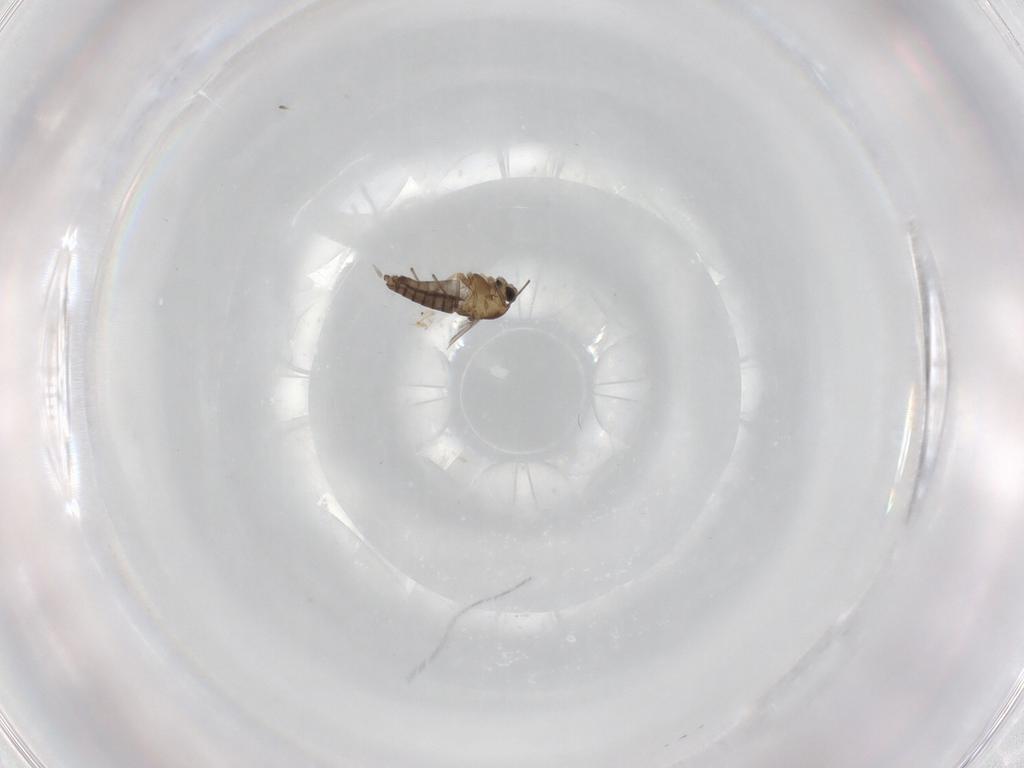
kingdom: Animalia
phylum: Arthropoda
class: Insecta
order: Diptera
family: Chironomidae
